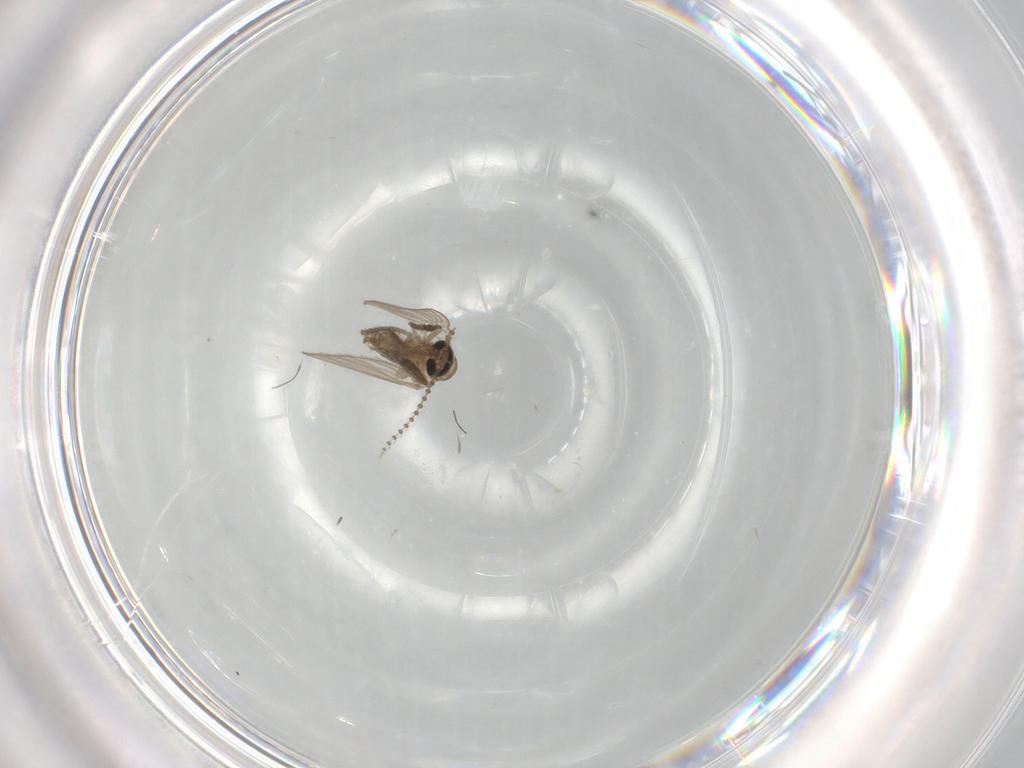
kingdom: Animalia
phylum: Arthropoda
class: Insecta
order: Diptera
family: Psychodidae
